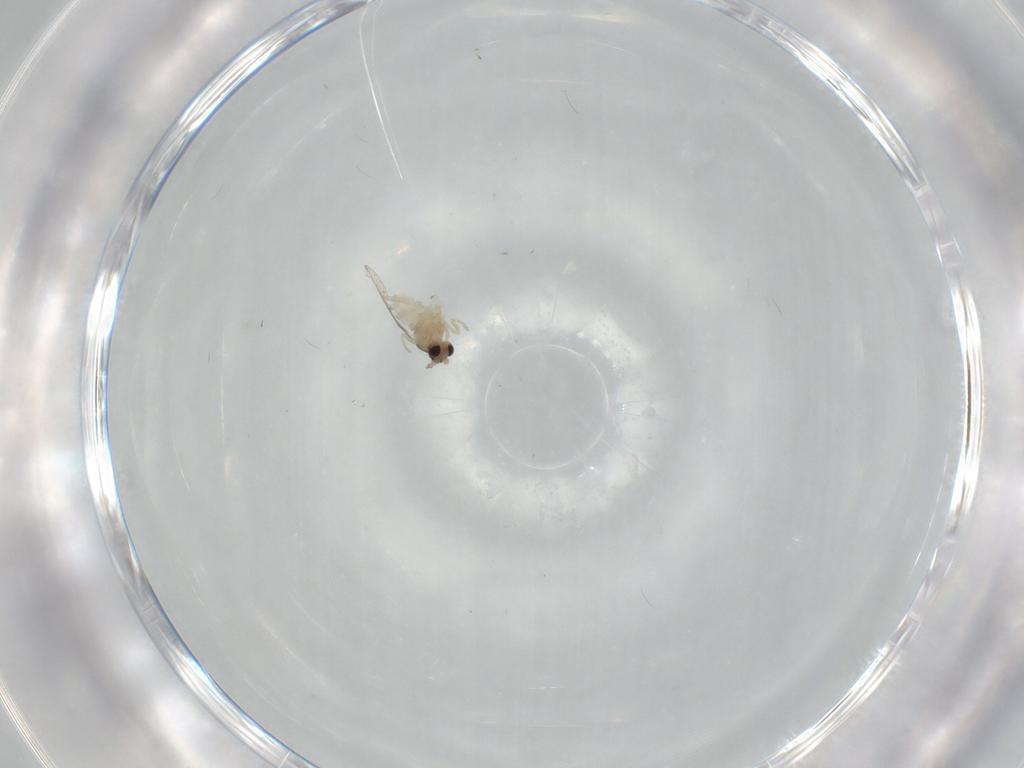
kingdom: Animalia
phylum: Arthropoda
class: Insecta
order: Diptera
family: Cecidomyiidae
